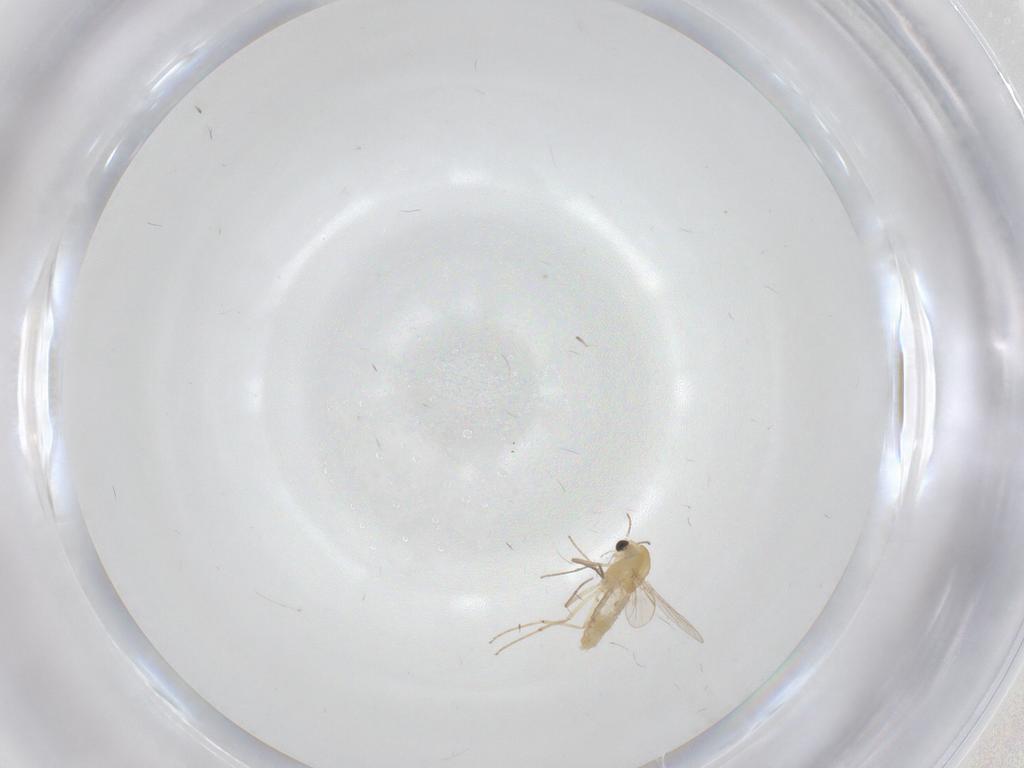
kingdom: Animalia
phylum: Arthropoda
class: Insecta
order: Diptera
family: Chironomidae
